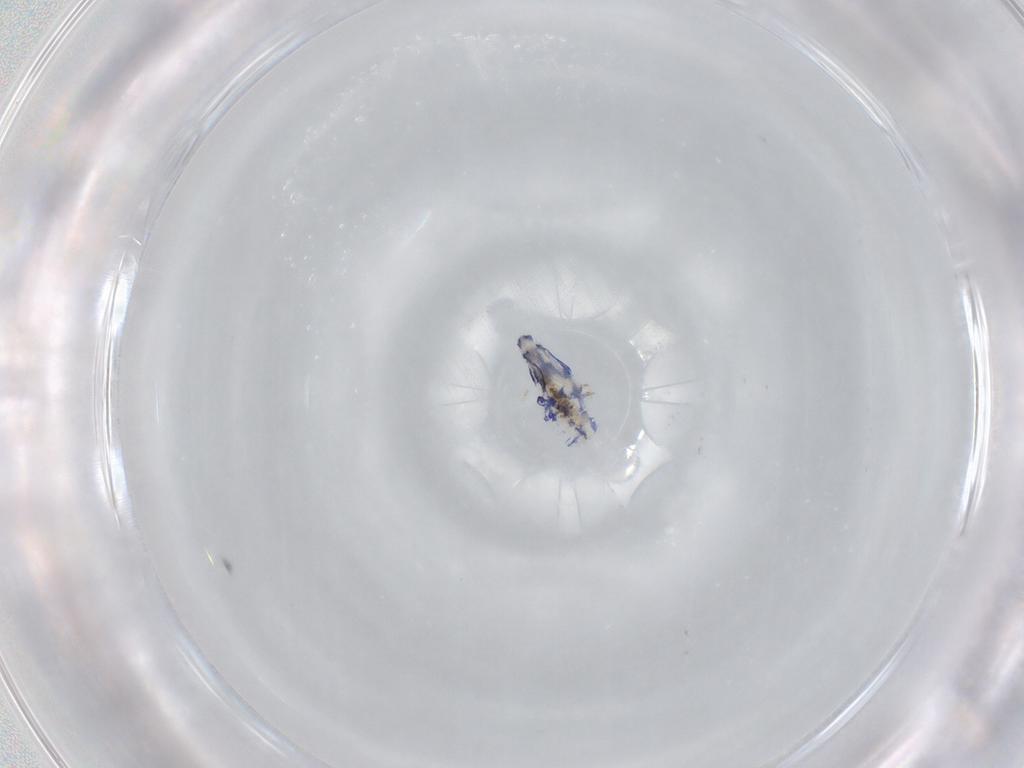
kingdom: Animalia
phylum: Arthropoda
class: Collembola
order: Entomobryomorpha
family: Entomobryidae
